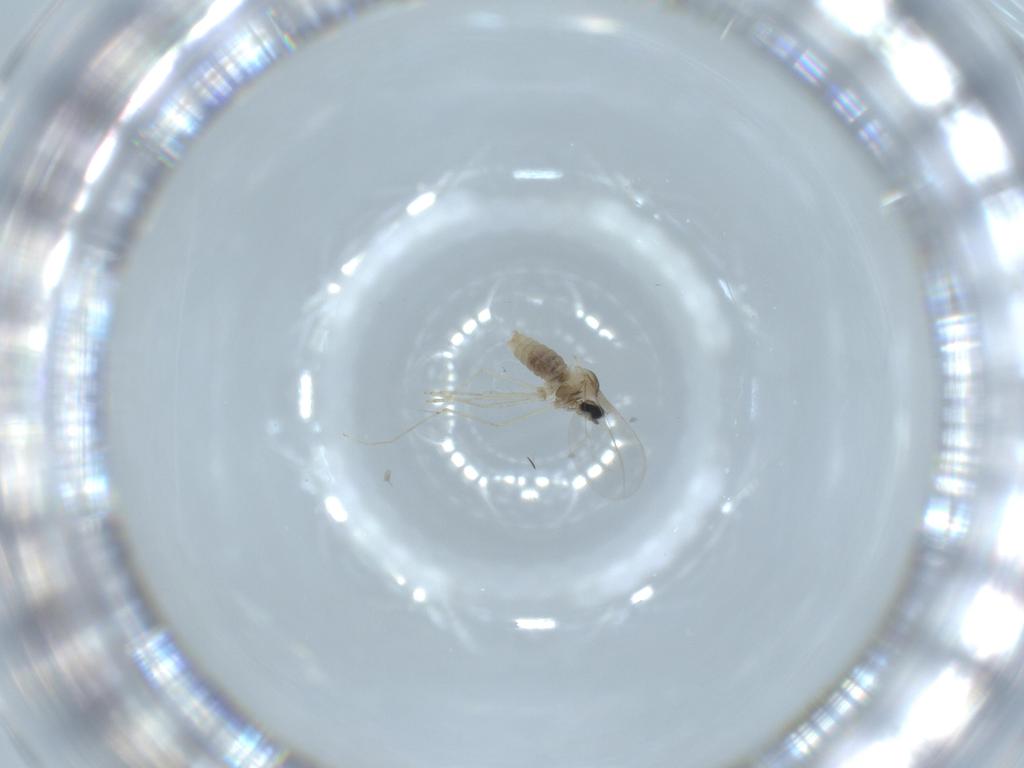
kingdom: Animalia
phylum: Arthropoda
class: Insecta
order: Diptera
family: Cecidomyiidae
